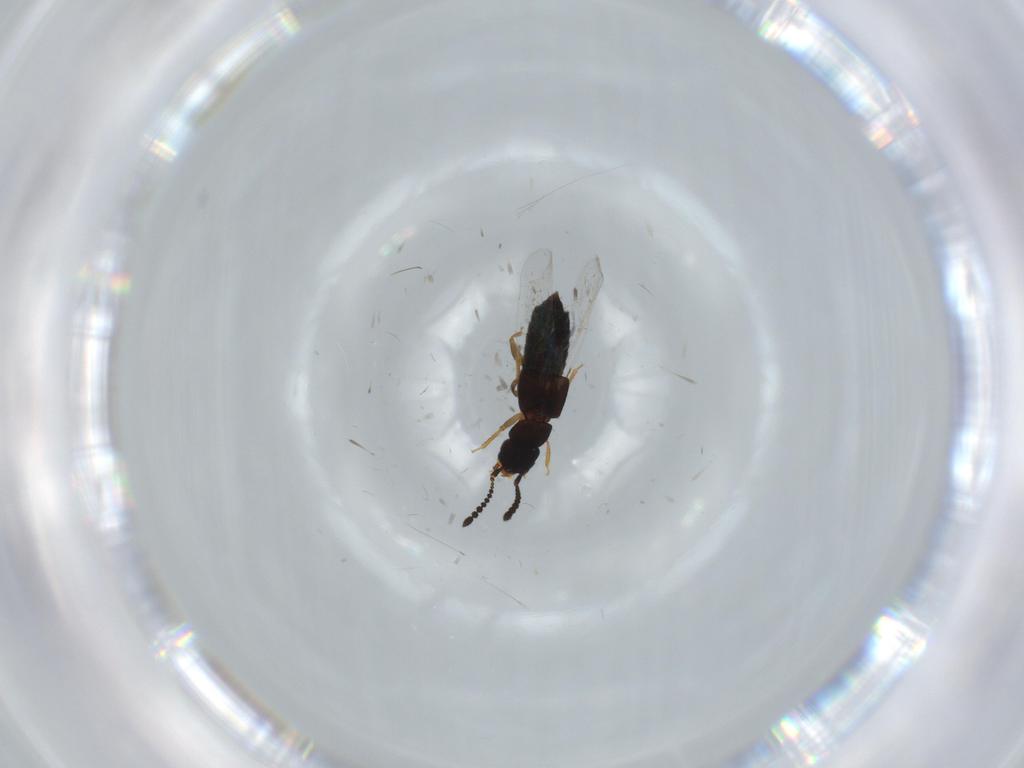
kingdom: Animalia
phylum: Arthropoda
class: Insecta
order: Coleoptera
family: Staphylinidae
